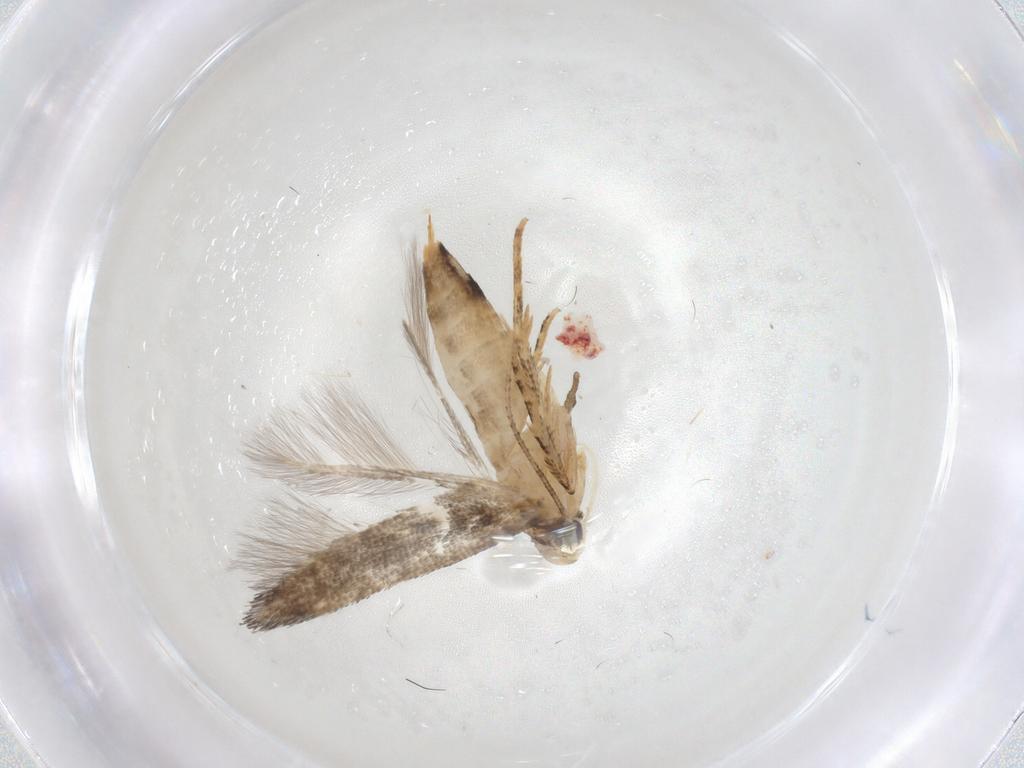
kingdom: Animalia
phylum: Arthropoda
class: Insecta
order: Lepidoptera
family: Cosmopterigidae
